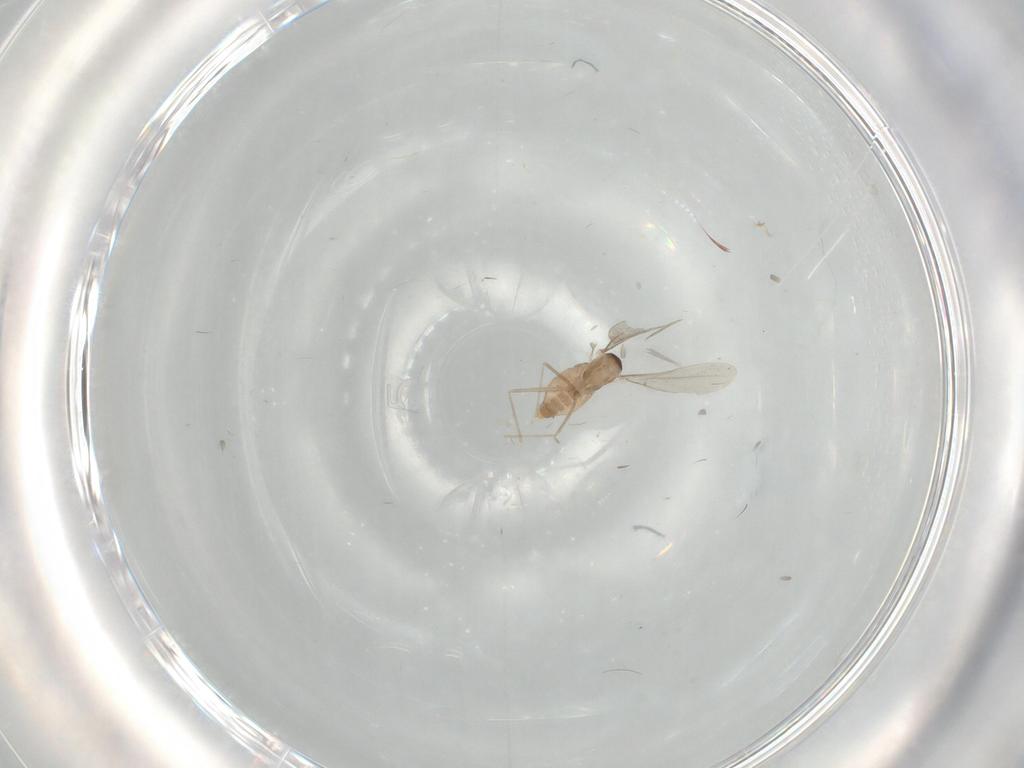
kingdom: Animalia
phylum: Arthropoda
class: Insecta
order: Diptera
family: Cecidomyiidae
